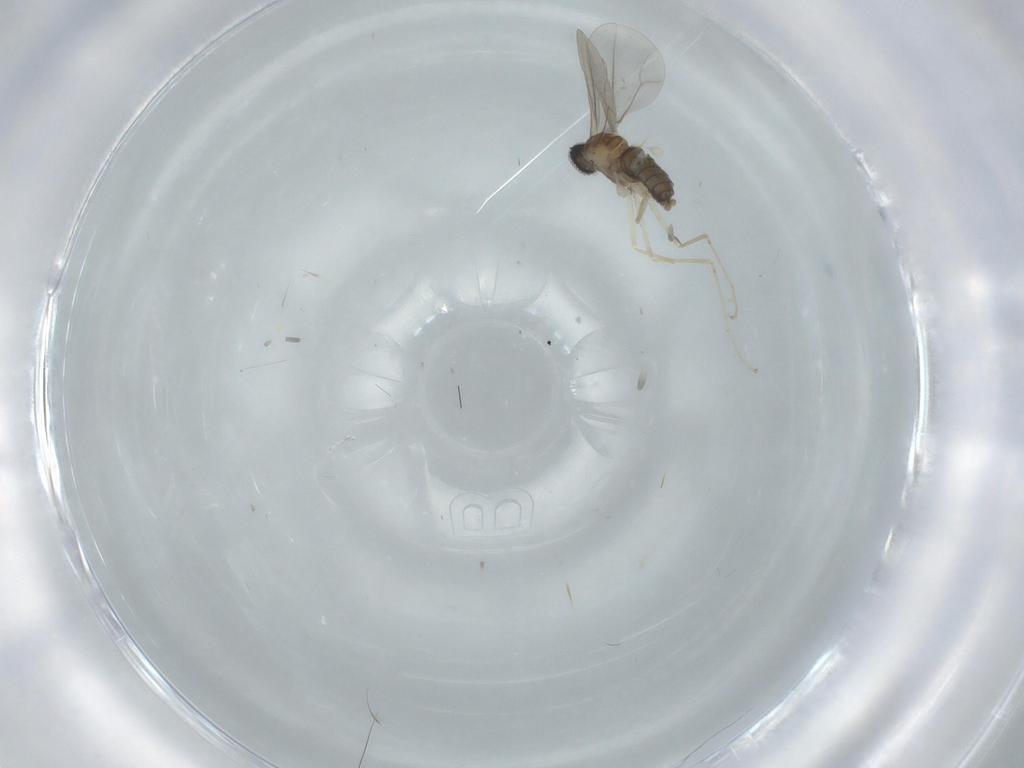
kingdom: Animalia
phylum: Arthropoda
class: Insecta
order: Diptera
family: Cecidomyiidae
